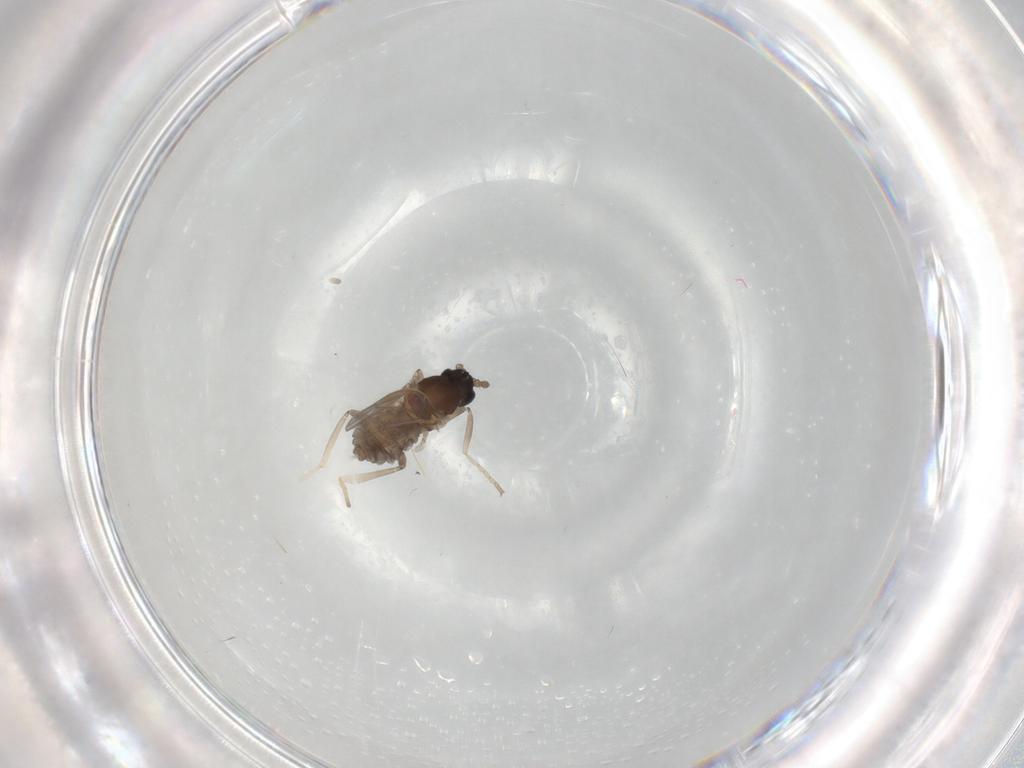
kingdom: Animalia
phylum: Arthropoda
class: Insecta
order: Diptera
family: Cecidomyiidae
